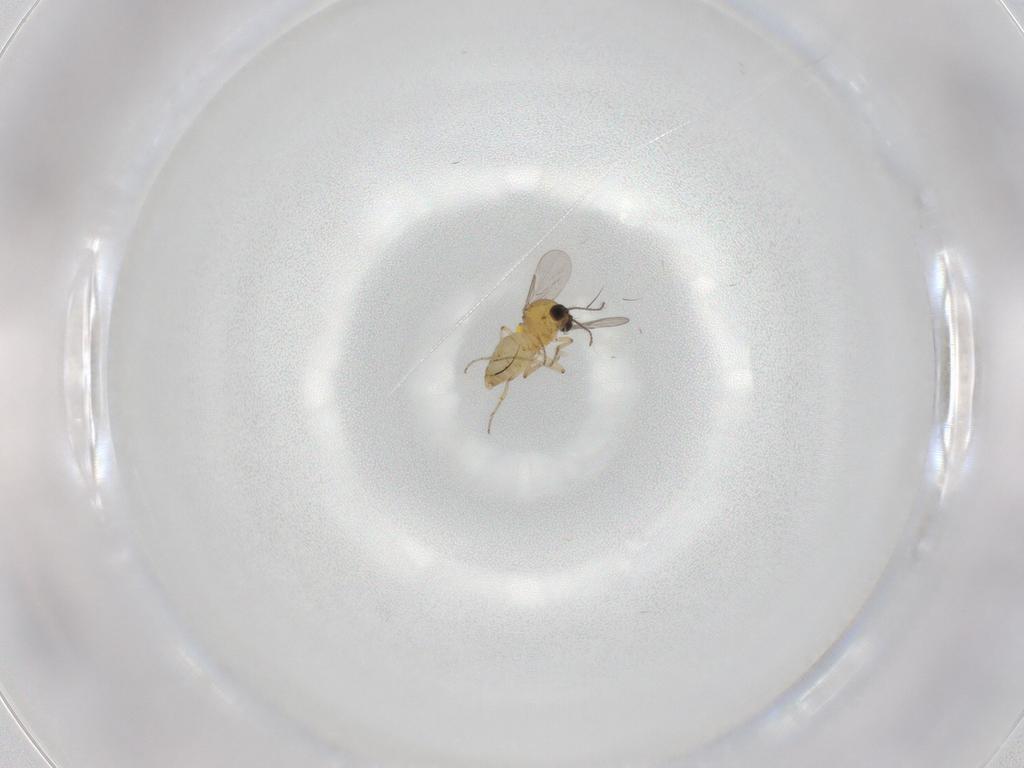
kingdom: Animalia
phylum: Arthropoda
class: Insecta
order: Diptera
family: Ceratopogonidae
